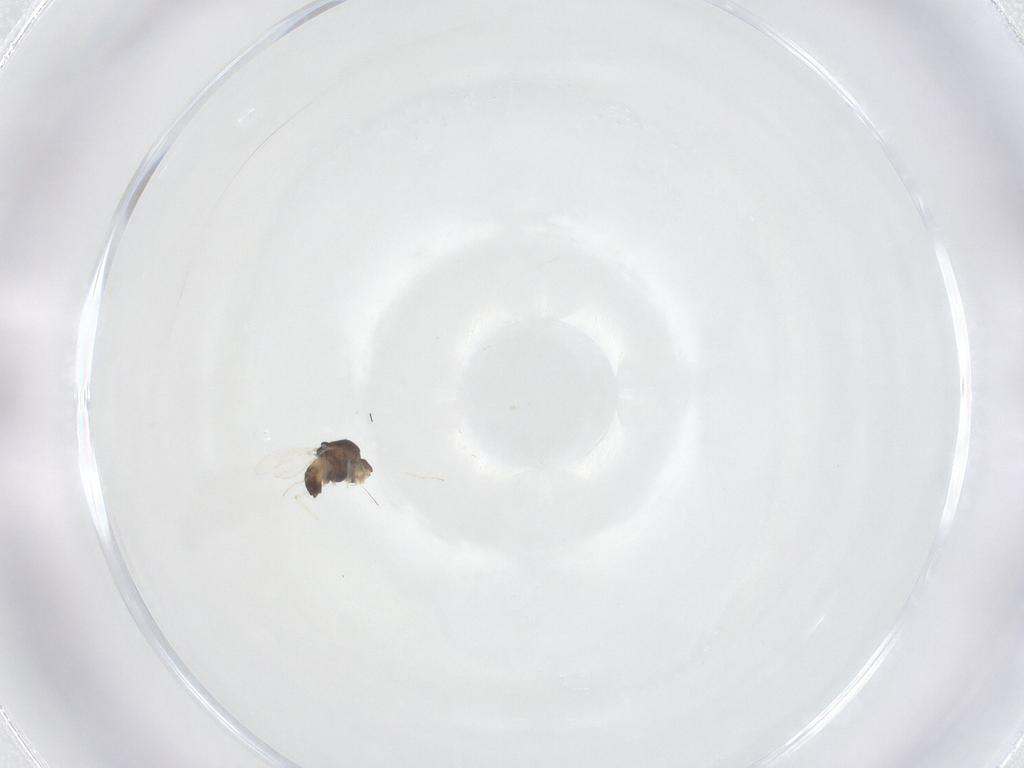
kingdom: Animalia
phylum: Arthropoda
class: Insecta
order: Diptera
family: Chironomidae
